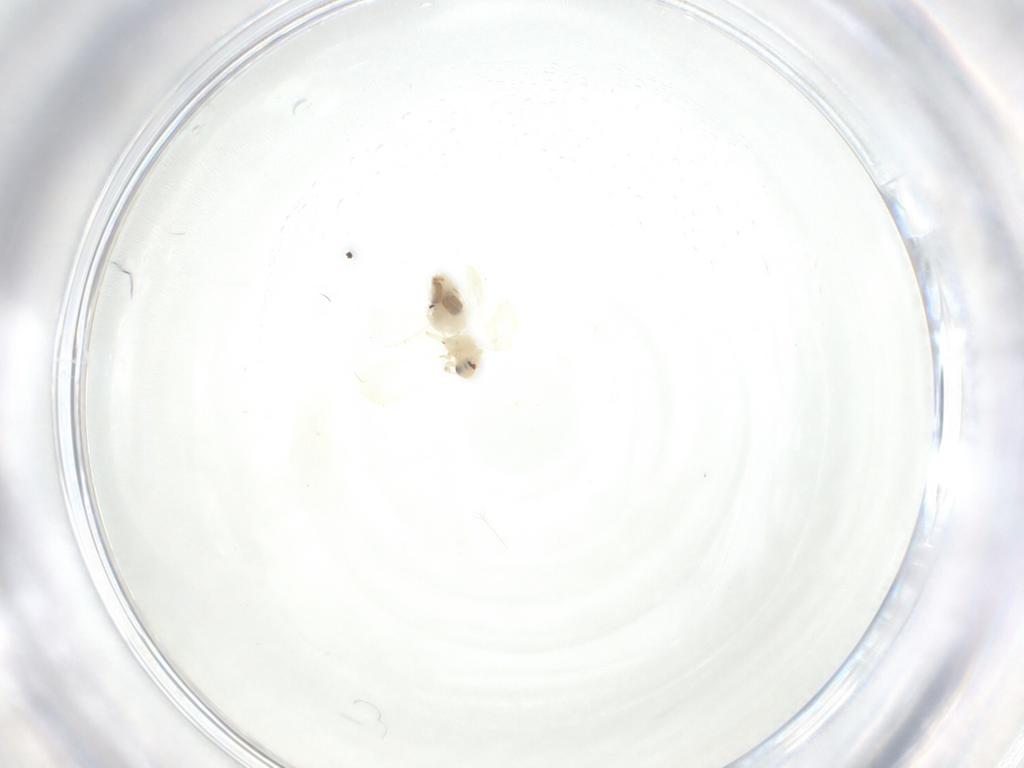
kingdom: Animalia
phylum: Arthropoda
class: Insecta
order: Hemiptera
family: Aleyrodidae
